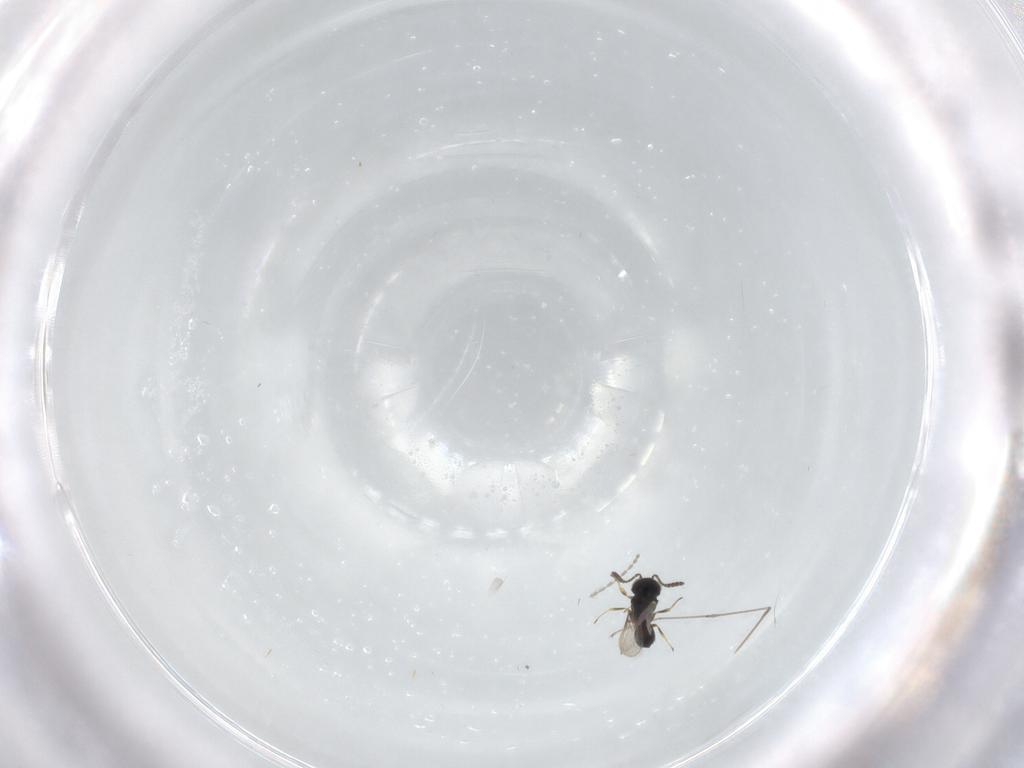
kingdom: Animalia
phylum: Arthropoda
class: Insecta
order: Hymenoptera
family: Scelionidae
